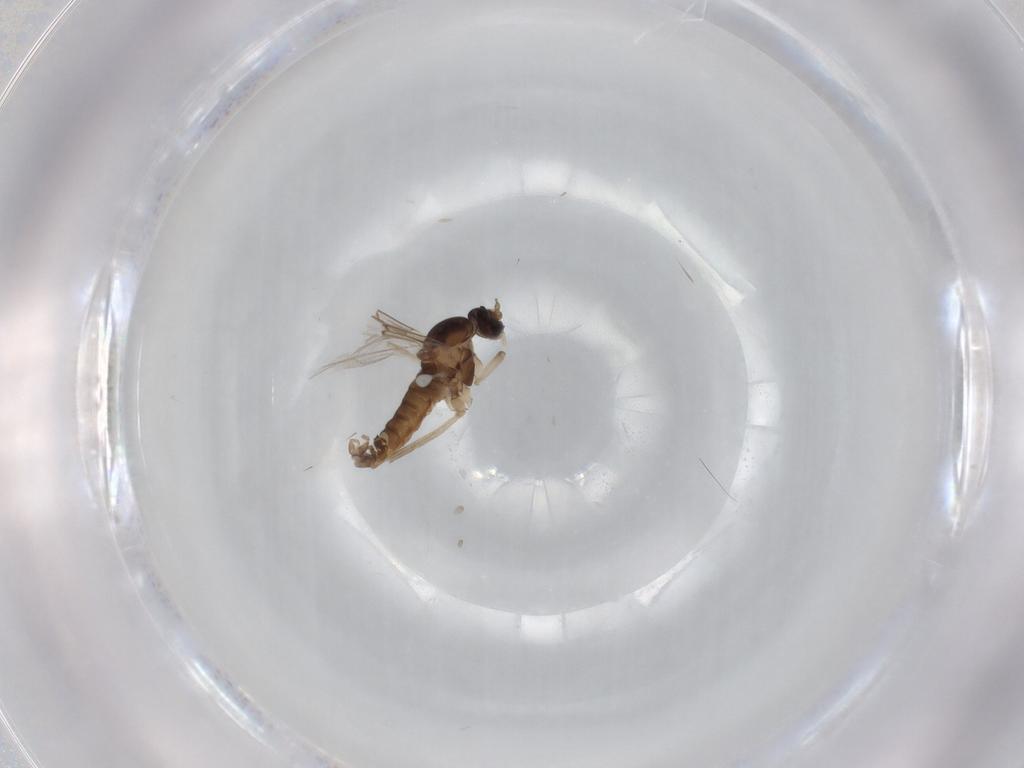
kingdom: Animalia
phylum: Arthropoda
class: Insecta
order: Diptera
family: Cecidomyiidae
